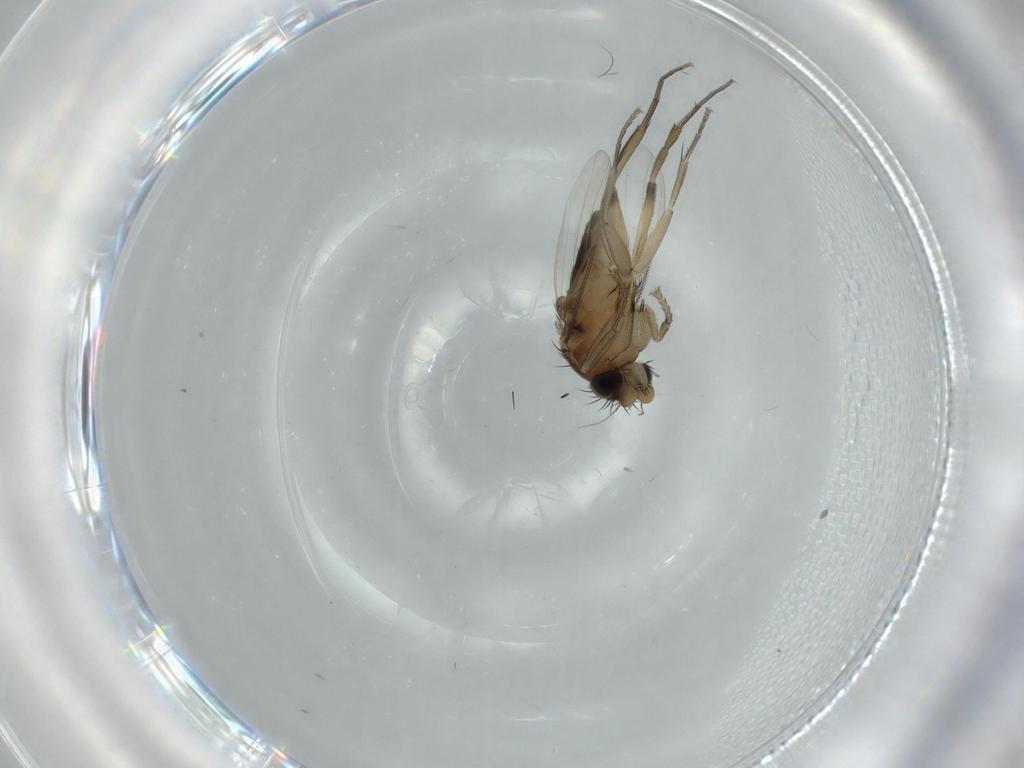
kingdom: Animalia
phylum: Arthropoda
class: Insecta
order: Diptera
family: Phoridae
